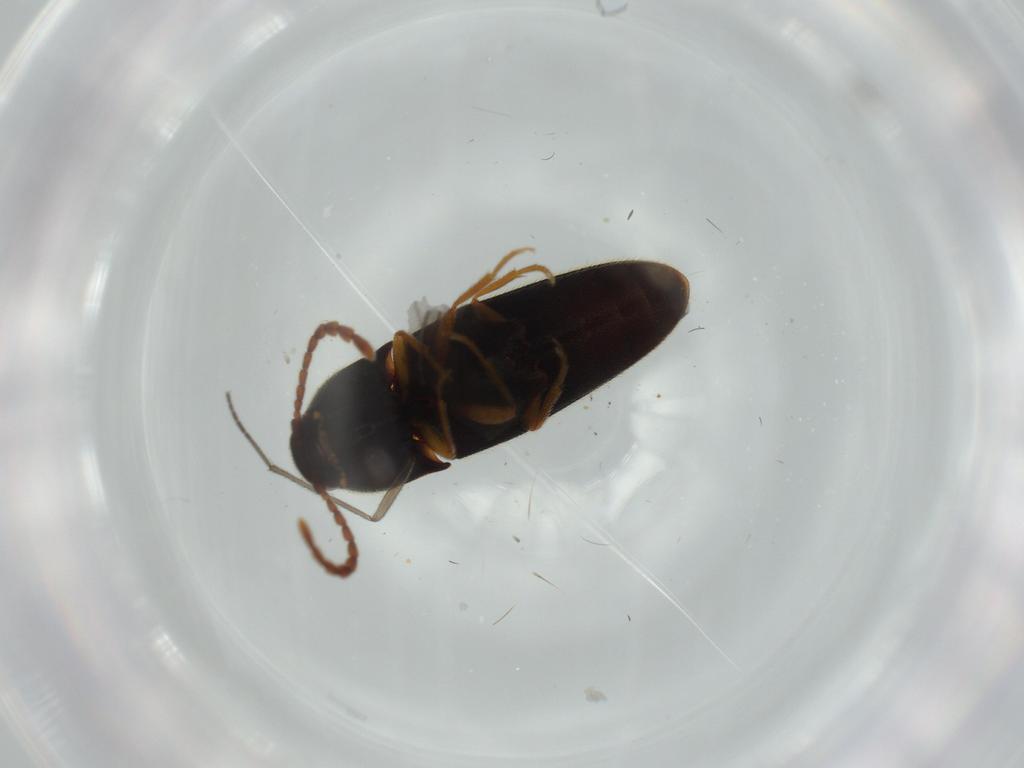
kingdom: Animalia
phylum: Arthropoda
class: Insecta
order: Coleoptera
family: Elateridae
